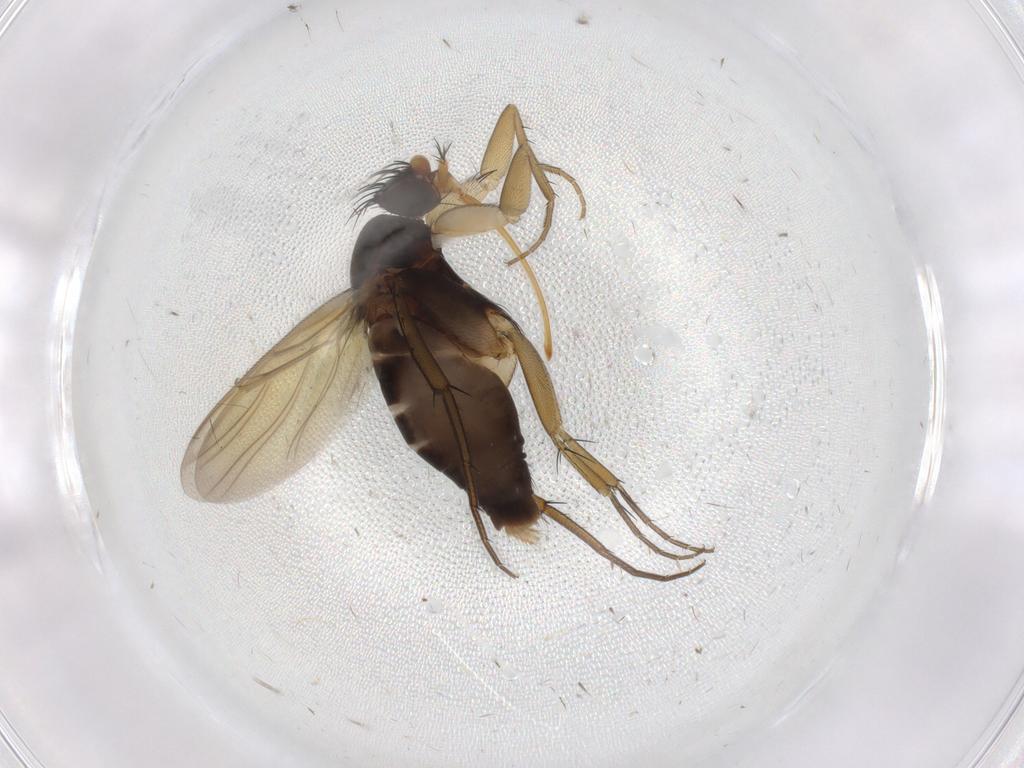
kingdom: Animalia
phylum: Arthropoda
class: Insecta
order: Diptera
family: Phoridae
